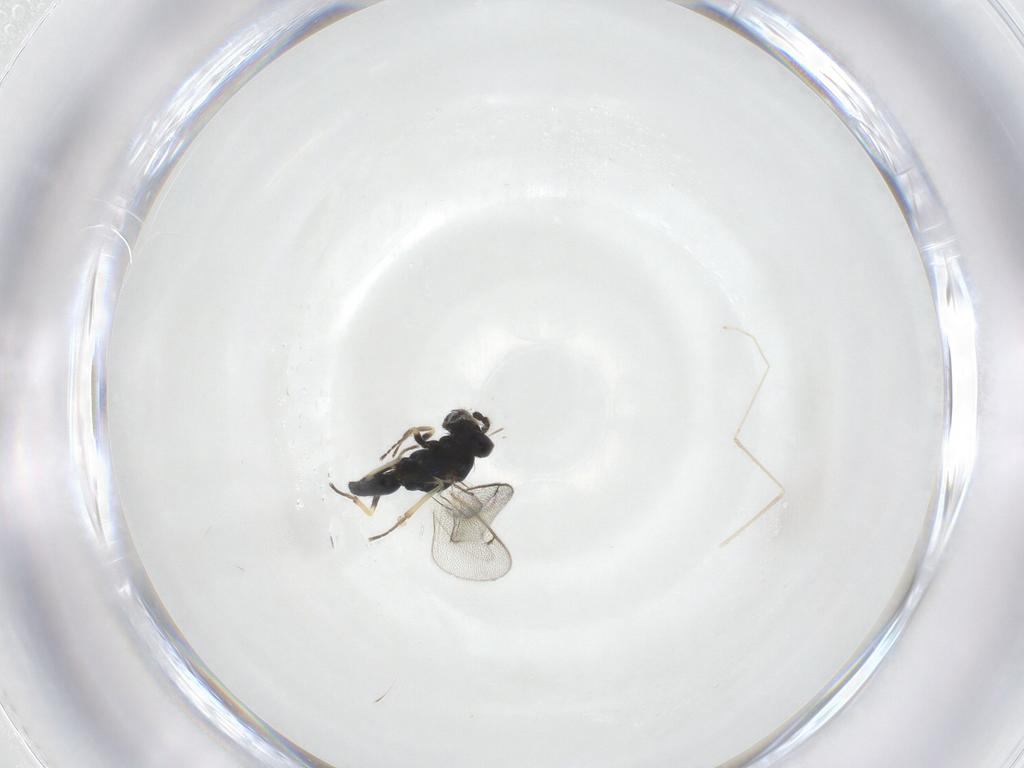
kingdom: Animalia
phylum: Arthropoda
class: Insecta
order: Hymenoptera
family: Eulophidae
